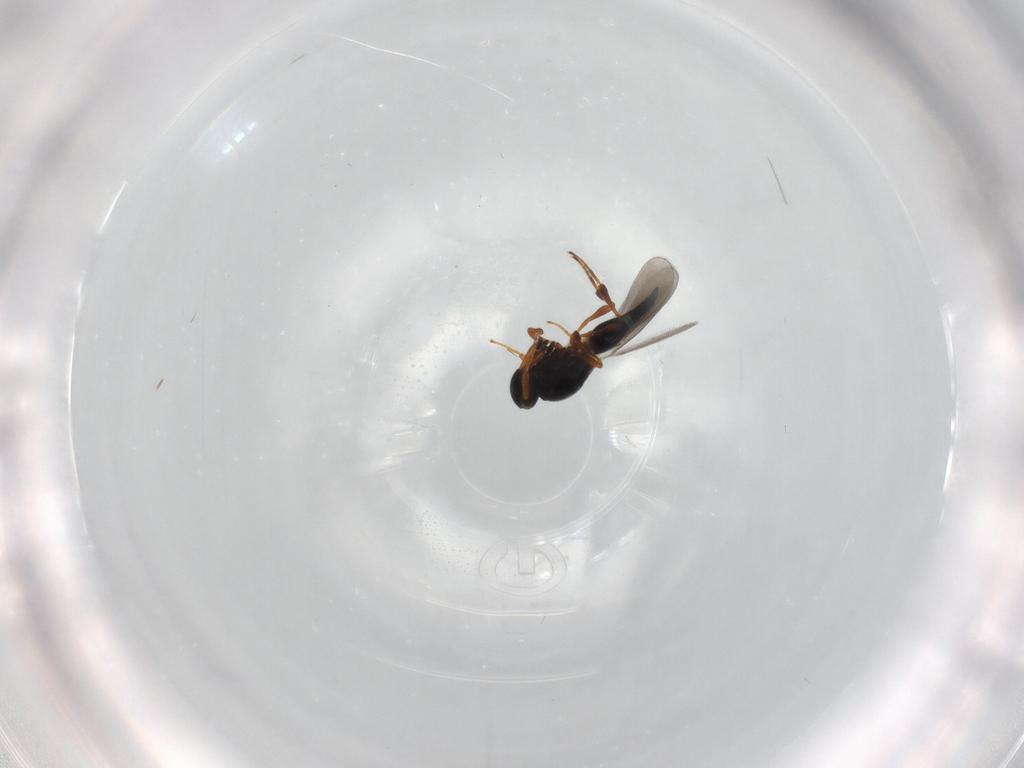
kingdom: Animalia
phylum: Arthropoda
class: Insecta
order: Hymenoptera
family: Platygastridae
